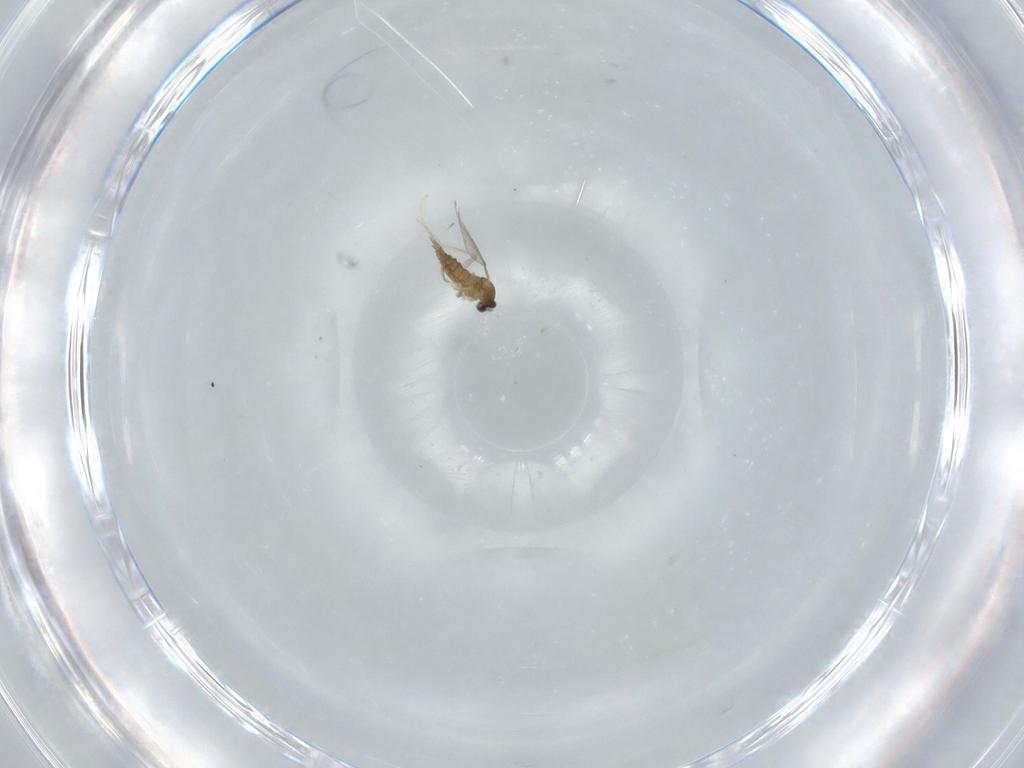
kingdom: Animalia
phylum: Arthropoda
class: Insecta
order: Diptera
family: Cecidomyiidae
